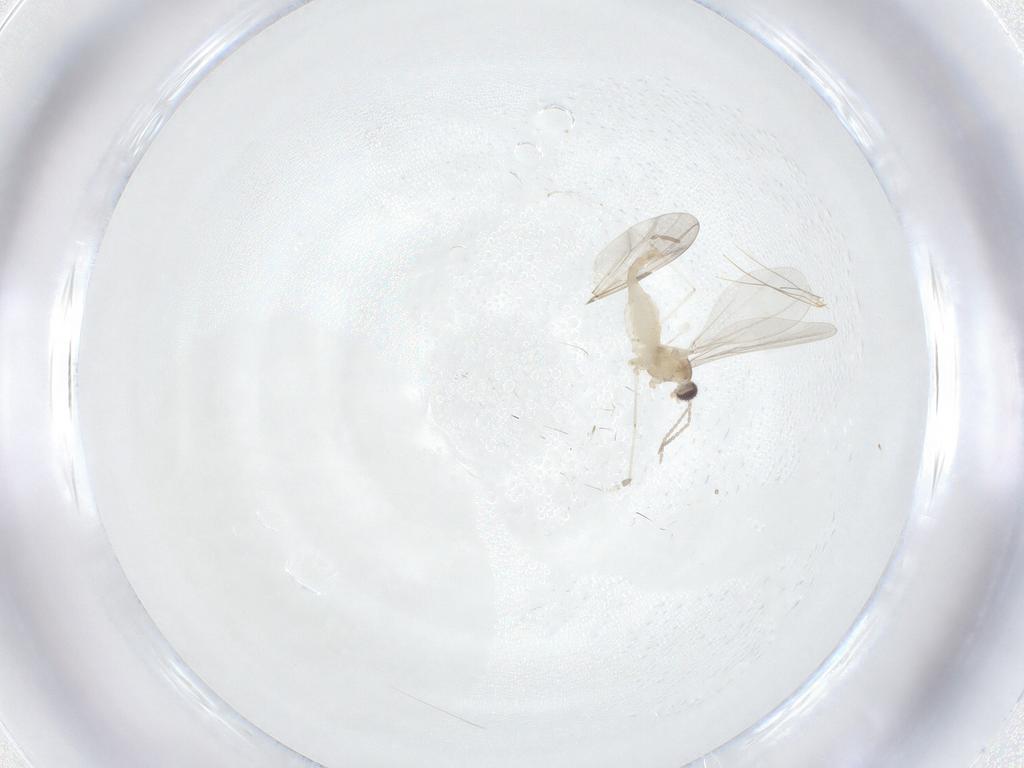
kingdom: Animalia
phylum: Arthropoda
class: Insecta
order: Diptera
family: Cecidomyiidae
